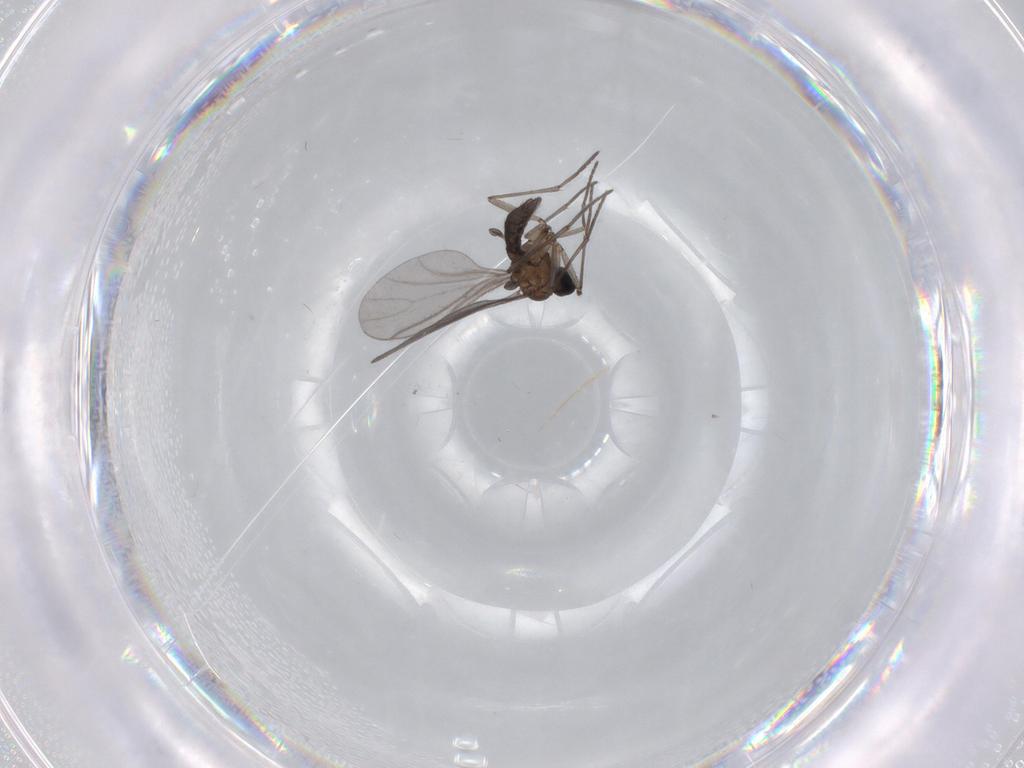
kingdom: Animalia
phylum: Arthropoda
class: Insecta
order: Diptera
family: Sciaridae
